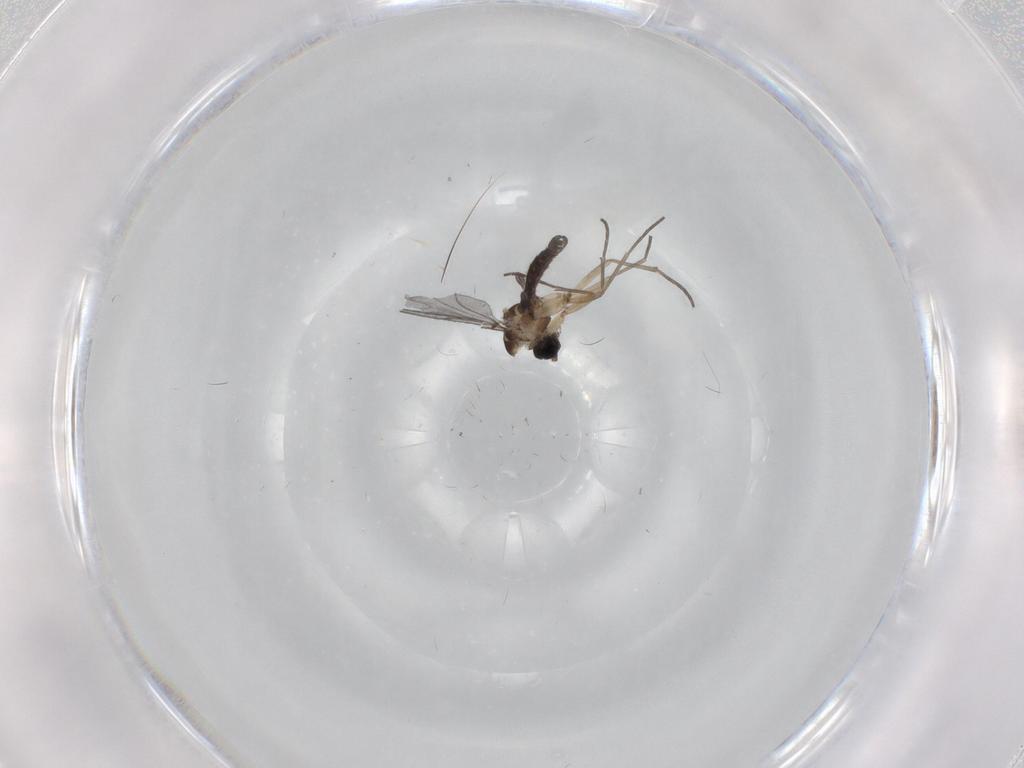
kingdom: Animalia
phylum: Arthropoda
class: Insecta
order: Diptera
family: Sciaridae
